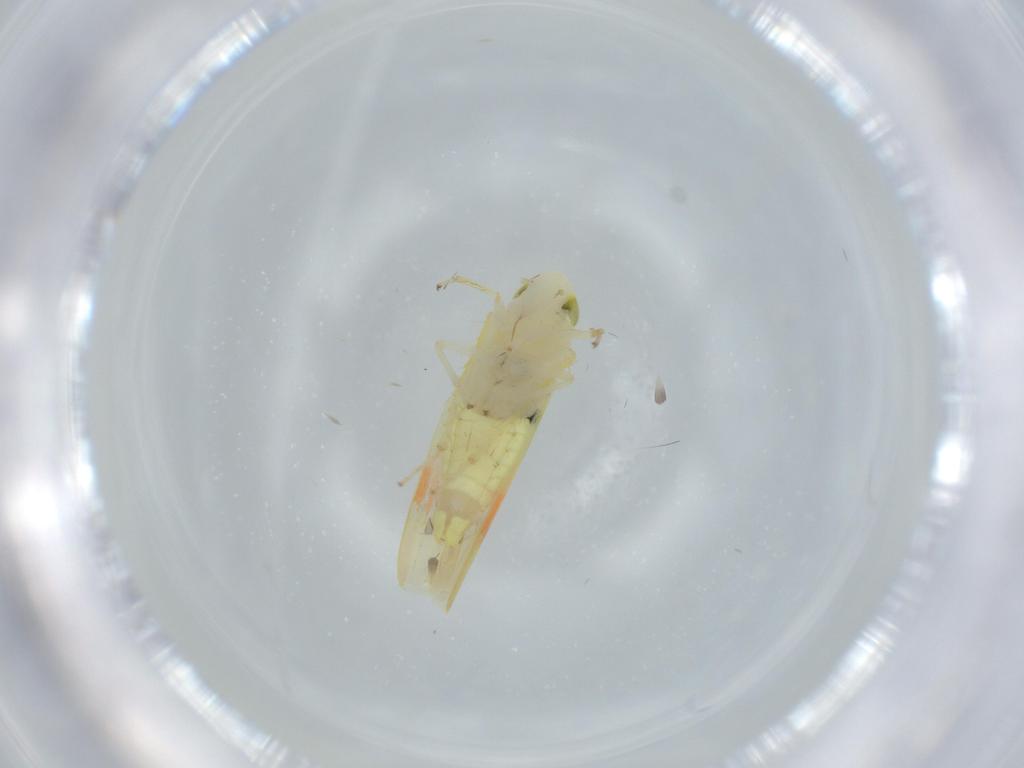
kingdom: Animalia
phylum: Arthropoda
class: Insecta
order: Hemiptera
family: Cicadellidae
